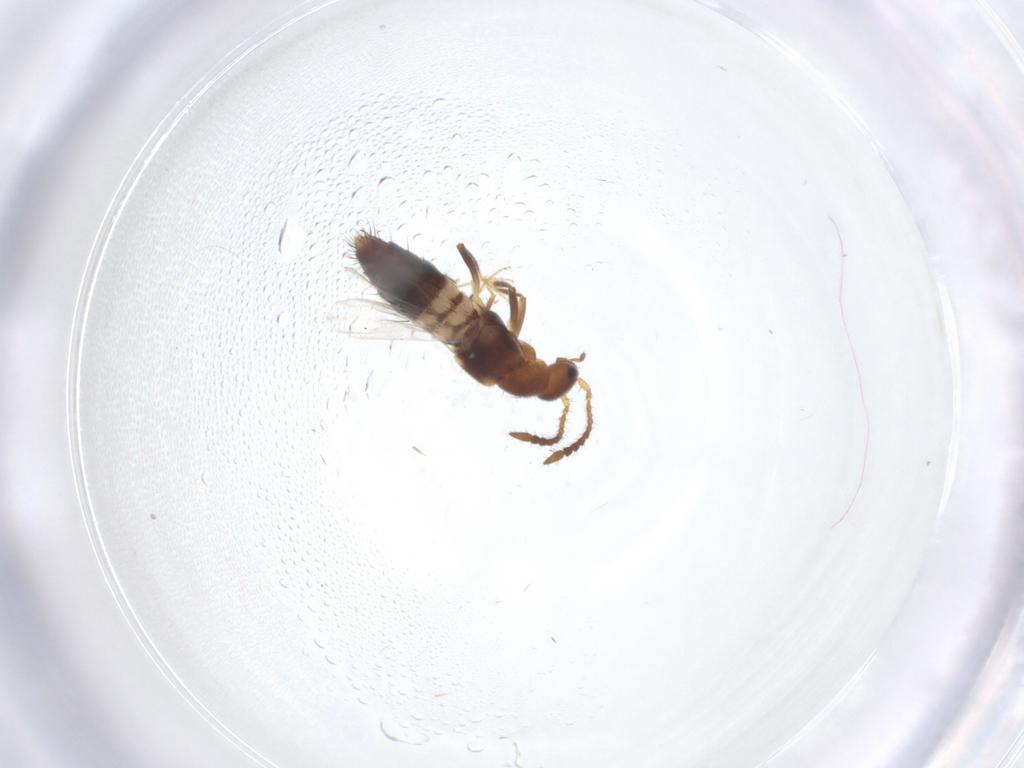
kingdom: Animalia
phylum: Arthropoda
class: Insecta
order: Coleoptera
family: Staphylinidae
